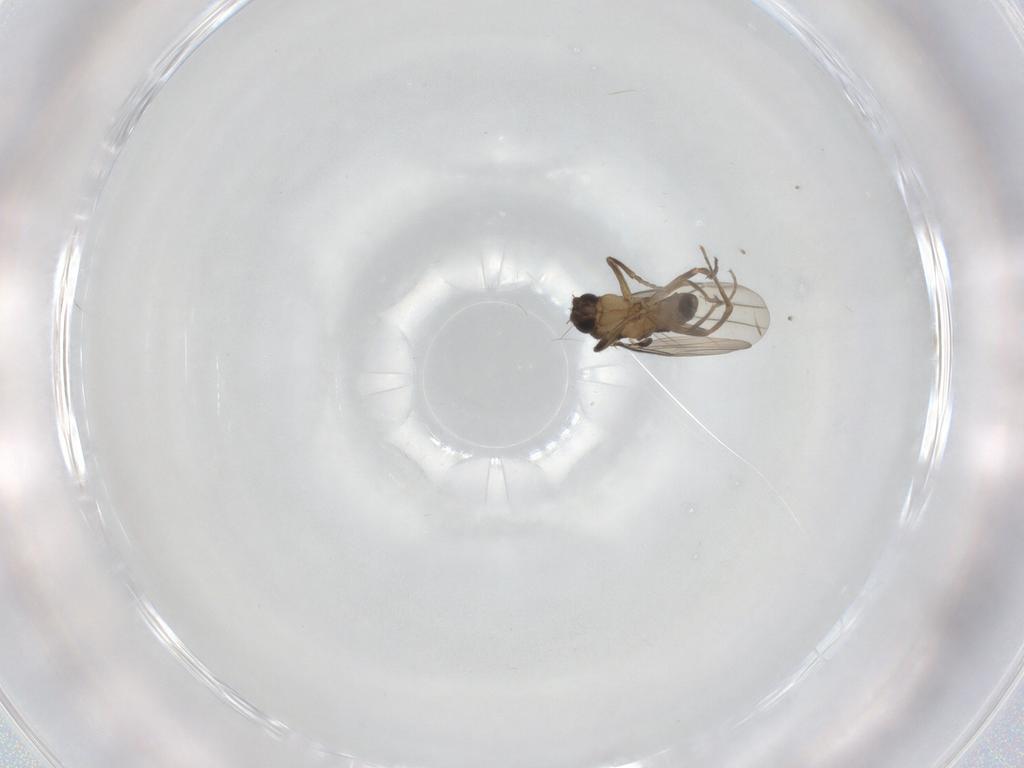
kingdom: Animalia
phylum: Arthropoda
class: Insecta
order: Diptera
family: Phoridae
